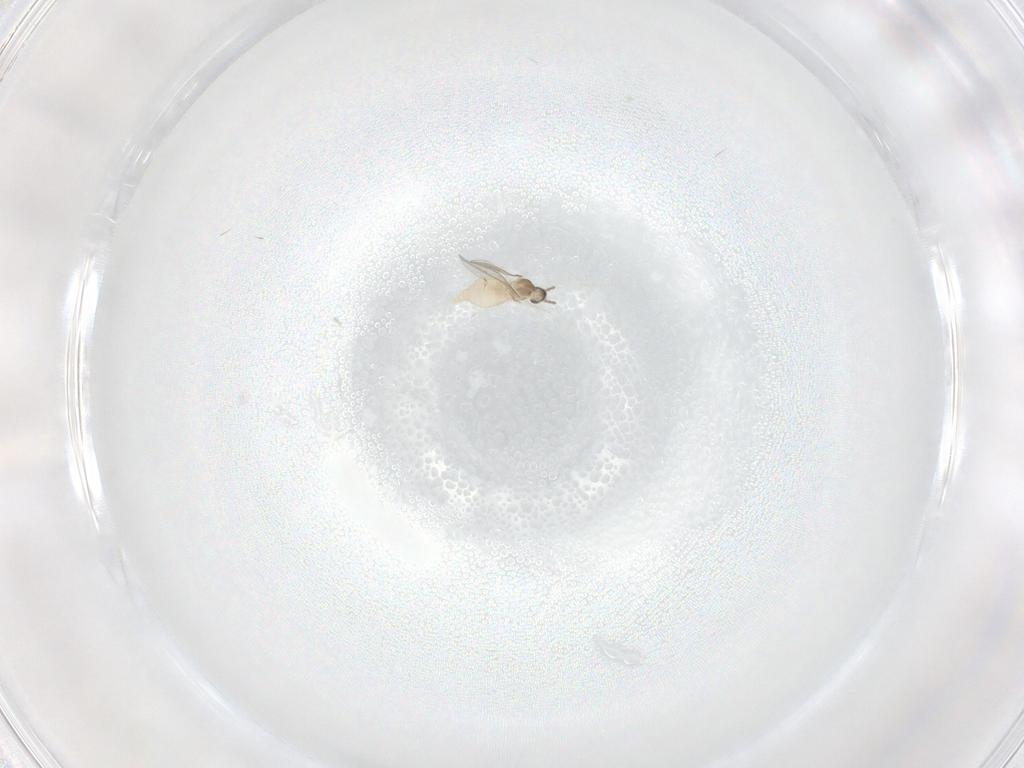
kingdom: Animalia
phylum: Arthropoda
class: Insecta
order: Diptera
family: Cecidomyiidae
